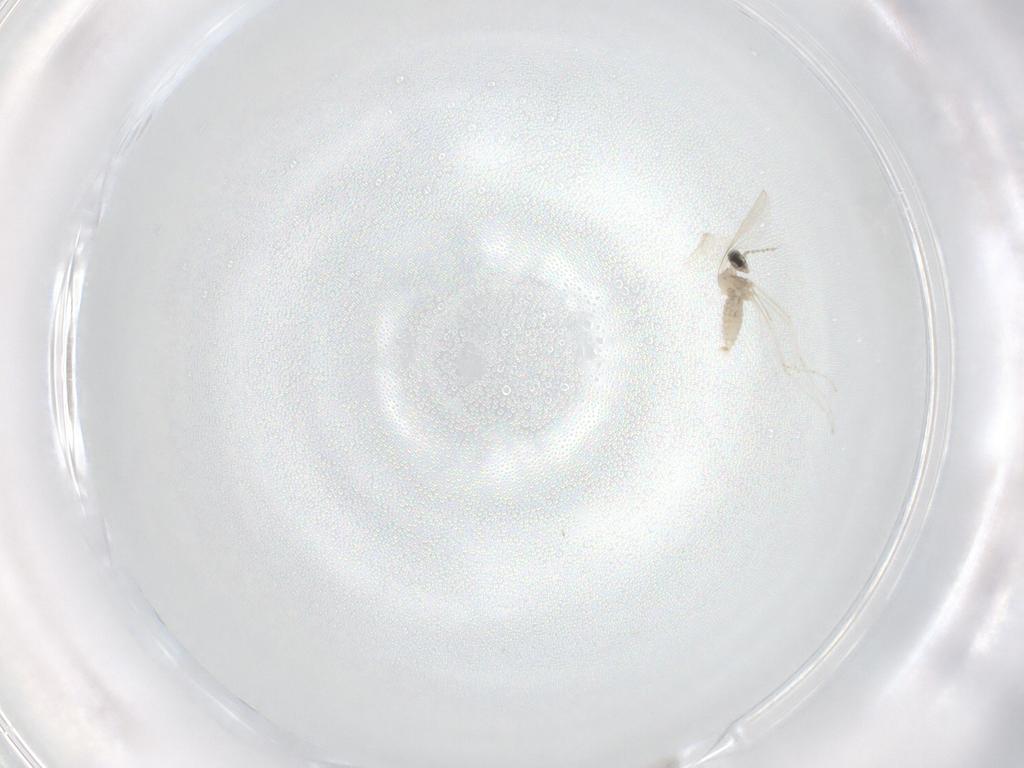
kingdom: Animalia
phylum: Arthropoda
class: Insecta
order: Diptera
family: Cecidomyiidae
